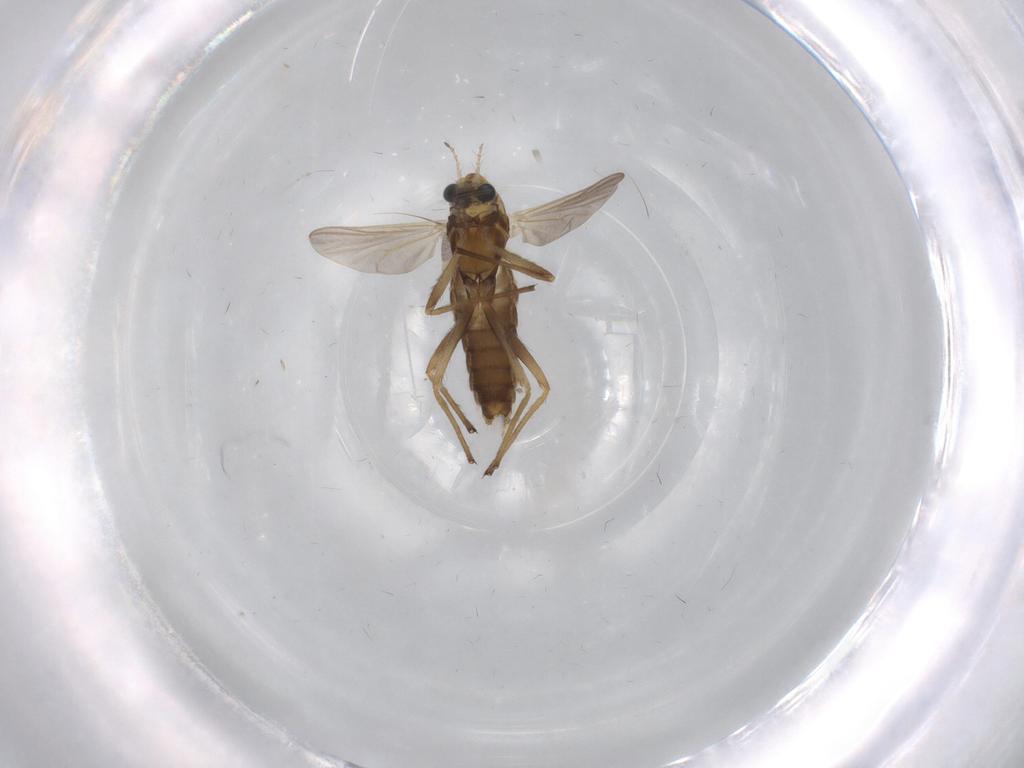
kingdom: Animalia
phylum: Arthropoda
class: Insecta
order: Diptera
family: Chironomidae
